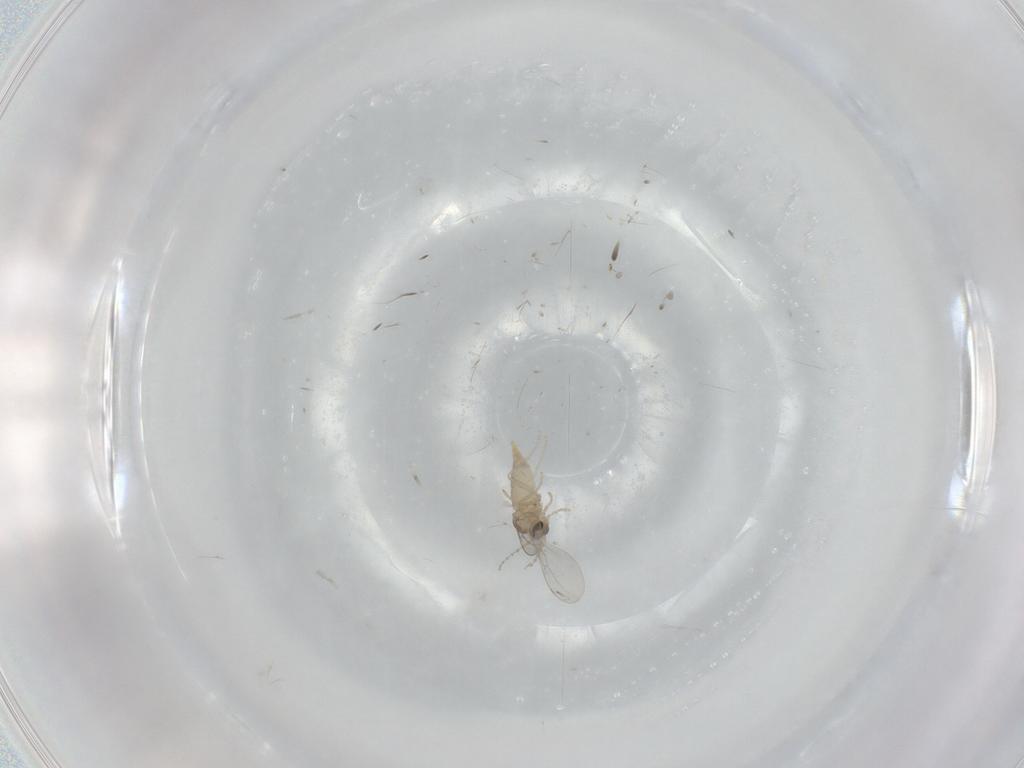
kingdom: Animalia
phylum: Arthropoda
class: Insecta
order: Diptera
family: Cecidomyiidae
